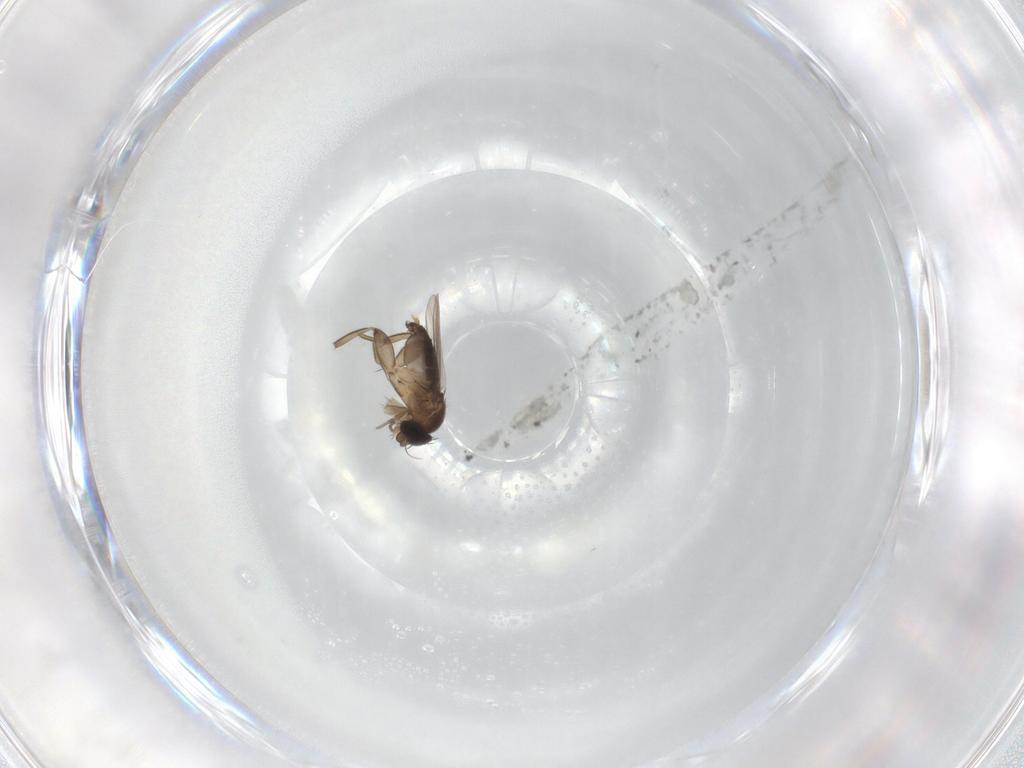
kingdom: Animalia
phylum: Arthropoda
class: Insecta
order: Diptera
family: Phoridae
